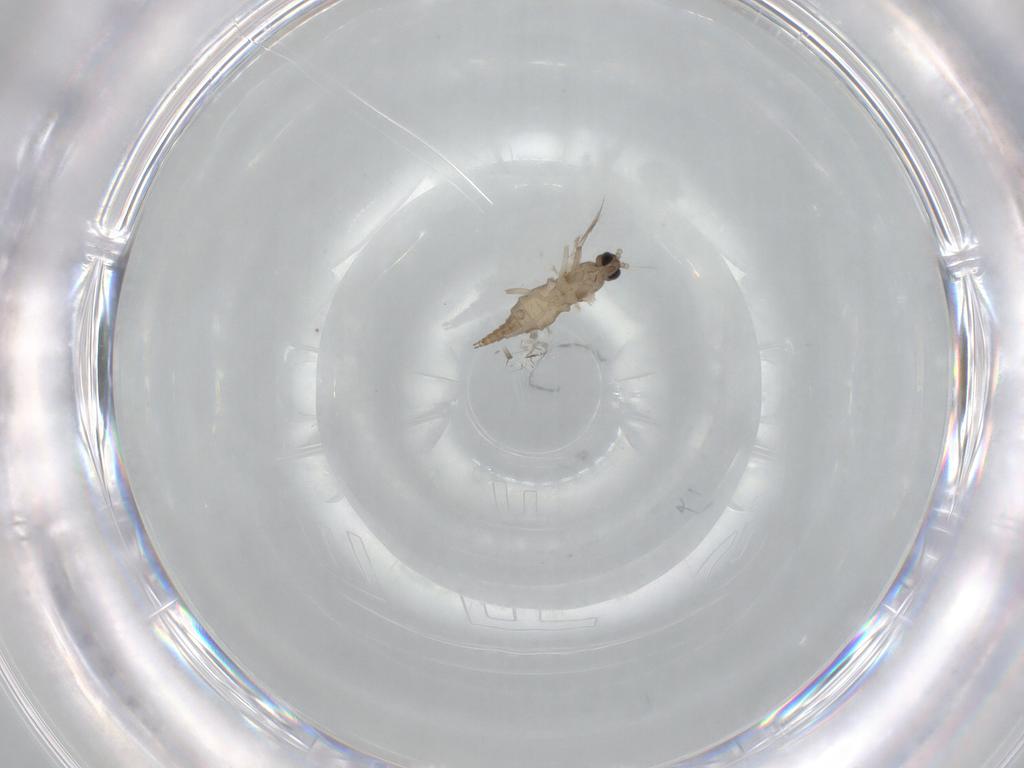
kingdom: Animalia
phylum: Arthropoda
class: Insecta
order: Diptera
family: Cecidomyiidae
